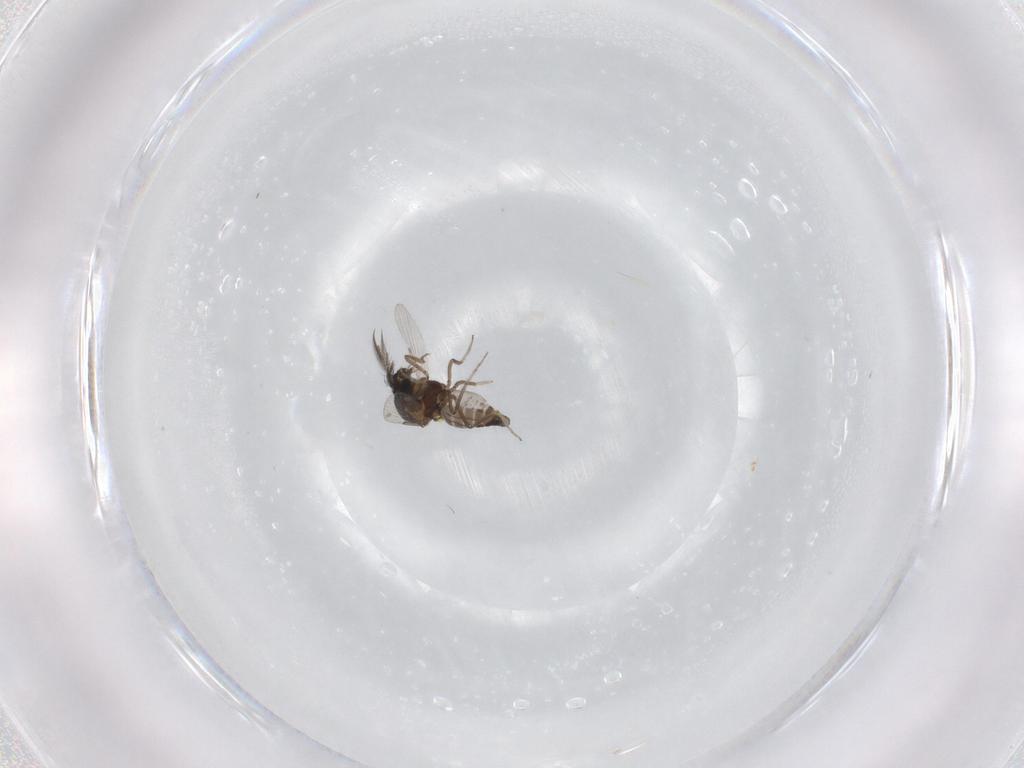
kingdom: Animalia
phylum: Arthropoda
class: Insecta
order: Diptera
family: Ceratopogonidae
